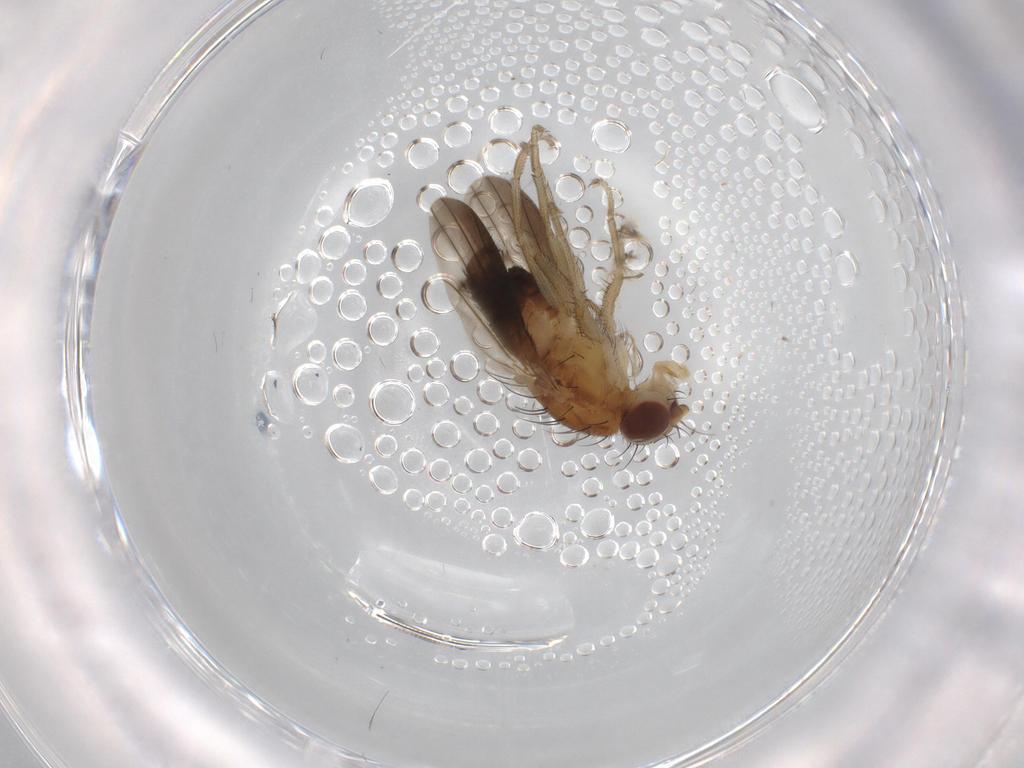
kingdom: Animalia
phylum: Arthropoda
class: Insecta
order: Diptera
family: Heleomyzidae
